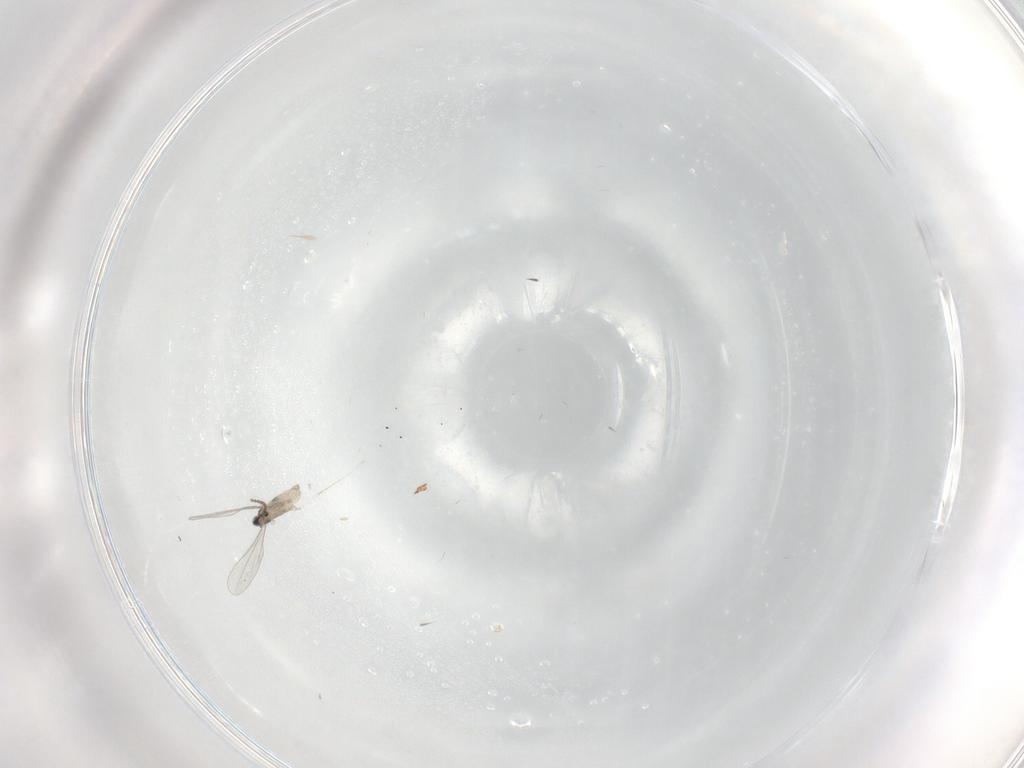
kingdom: Animalia
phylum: Arthropoda
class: Insecta
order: Diptera
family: Cecidomyiidae
